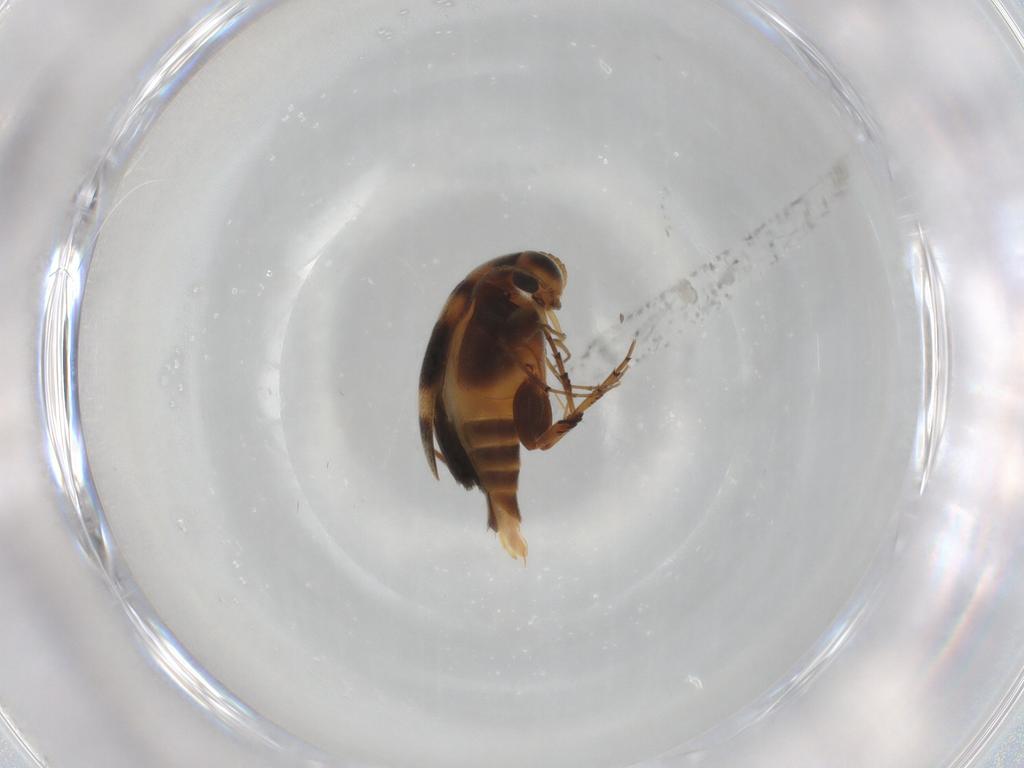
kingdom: Animalia
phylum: Arthropoda
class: Insecta
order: Coleoptera
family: Mordellidae
